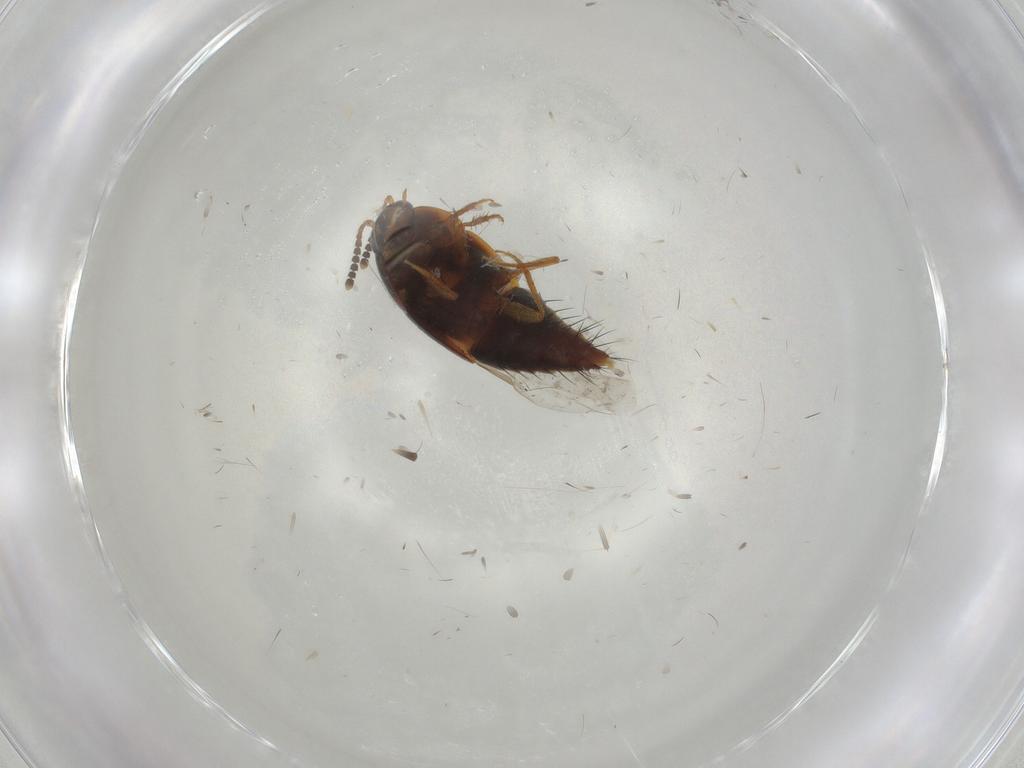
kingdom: Animalia
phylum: Arthropoda
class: Insecta
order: Coleoptera
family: Staphylinidae
